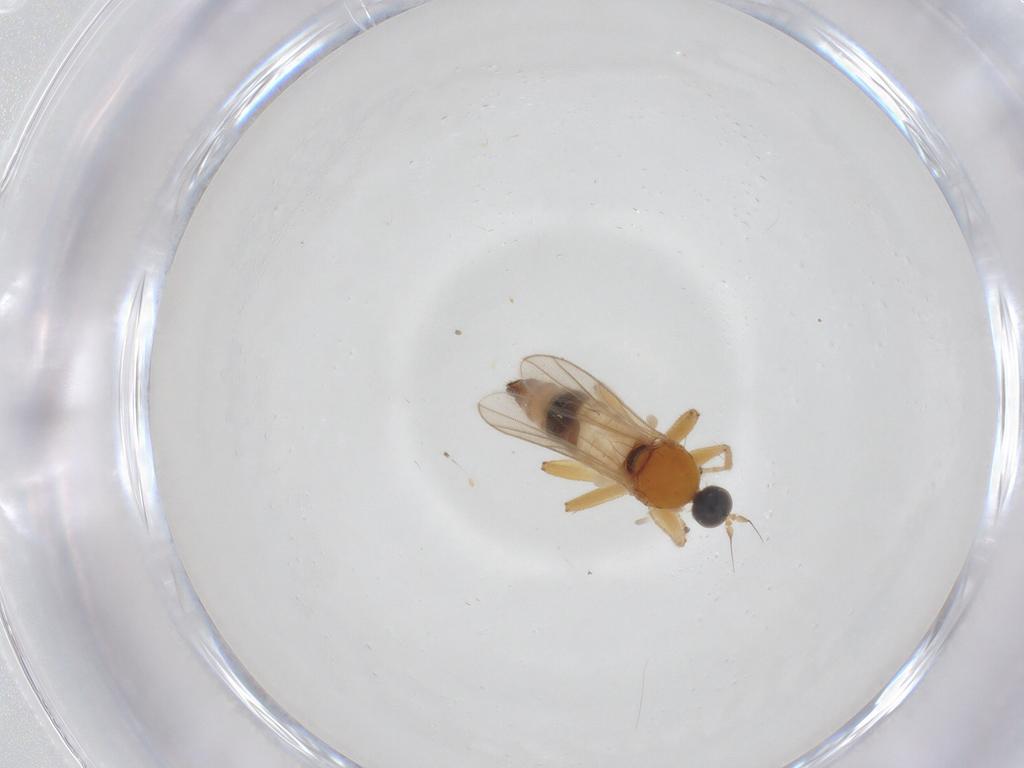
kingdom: Animalia
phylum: Arthropoda
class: Insecta
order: Diptera
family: Hybotidae
